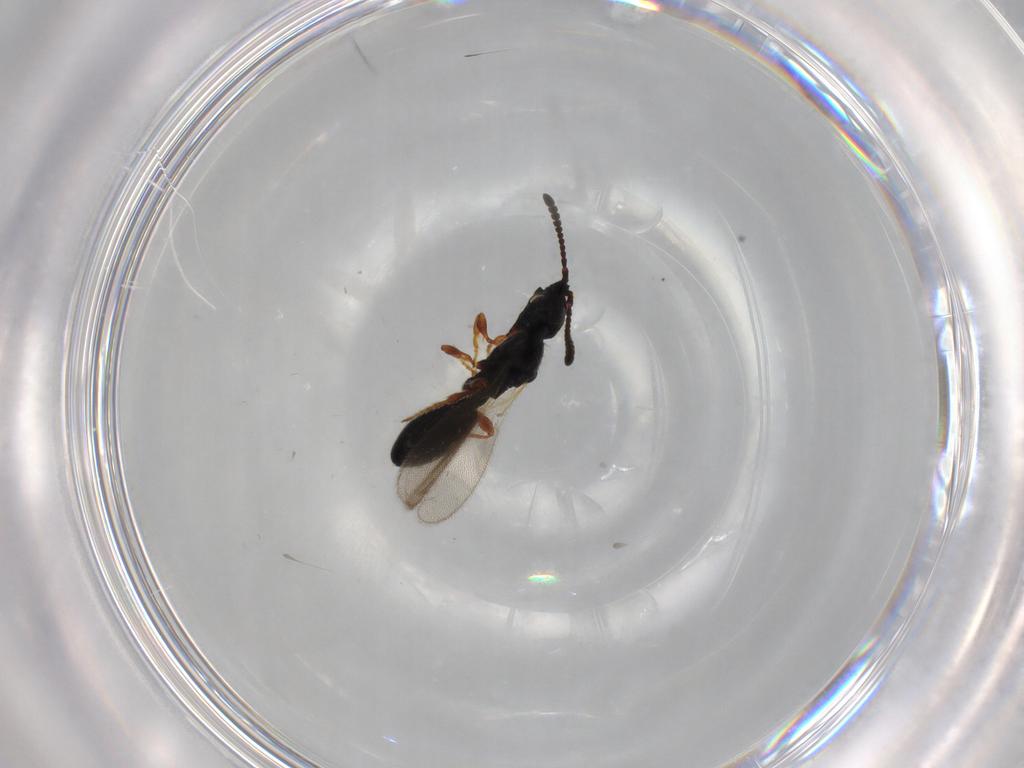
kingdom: Animalia
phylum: Arthropoda
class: Insecta
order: Hymenoptera
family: Diapriidae
